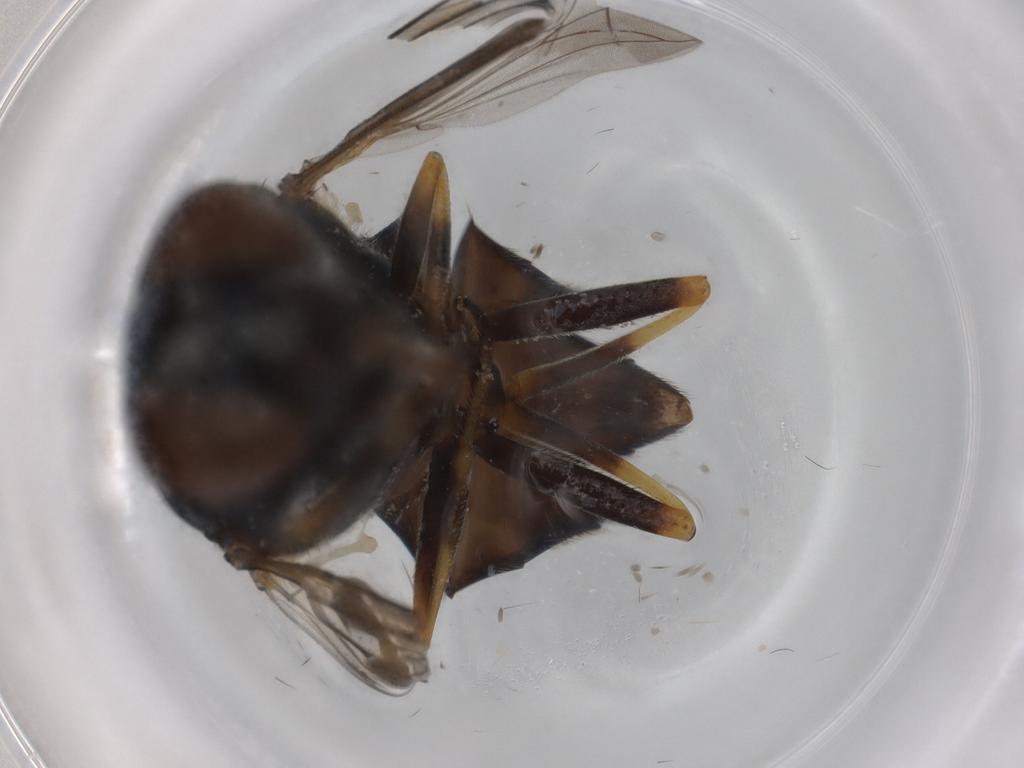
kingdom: Animalia
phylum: Arthropoda
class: Insecta
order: Diptera
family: Syrphidae
